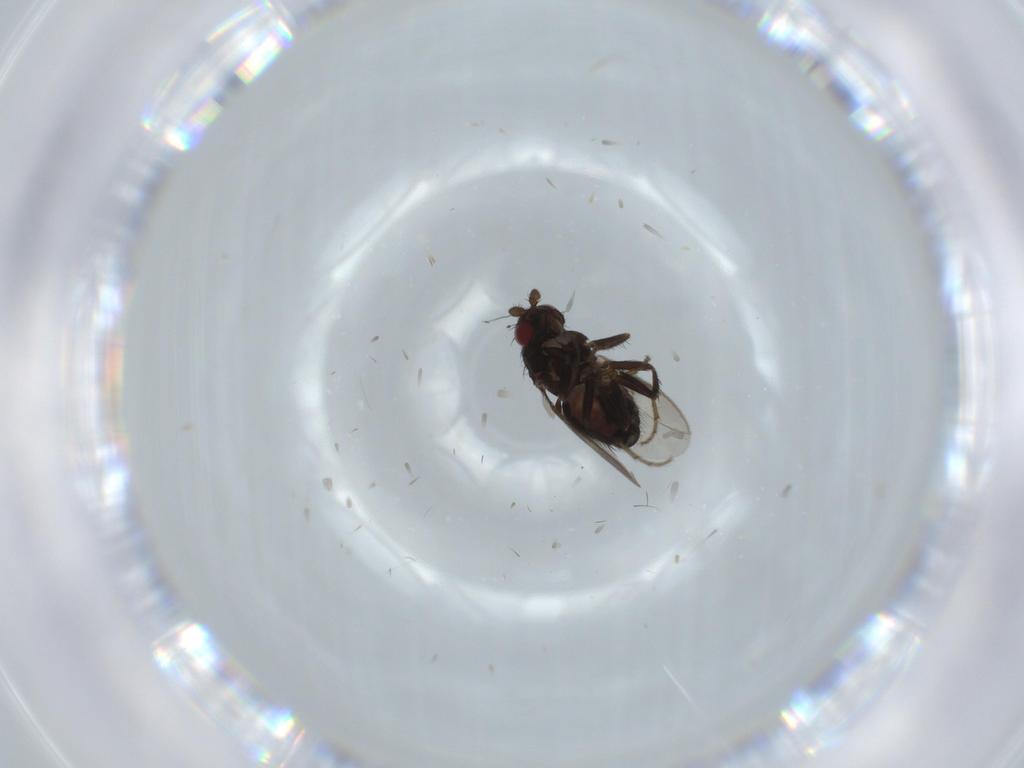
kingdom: Animalia
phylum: Arthropoda
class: Insecta
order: Diptera
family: Sphaeroceridae
